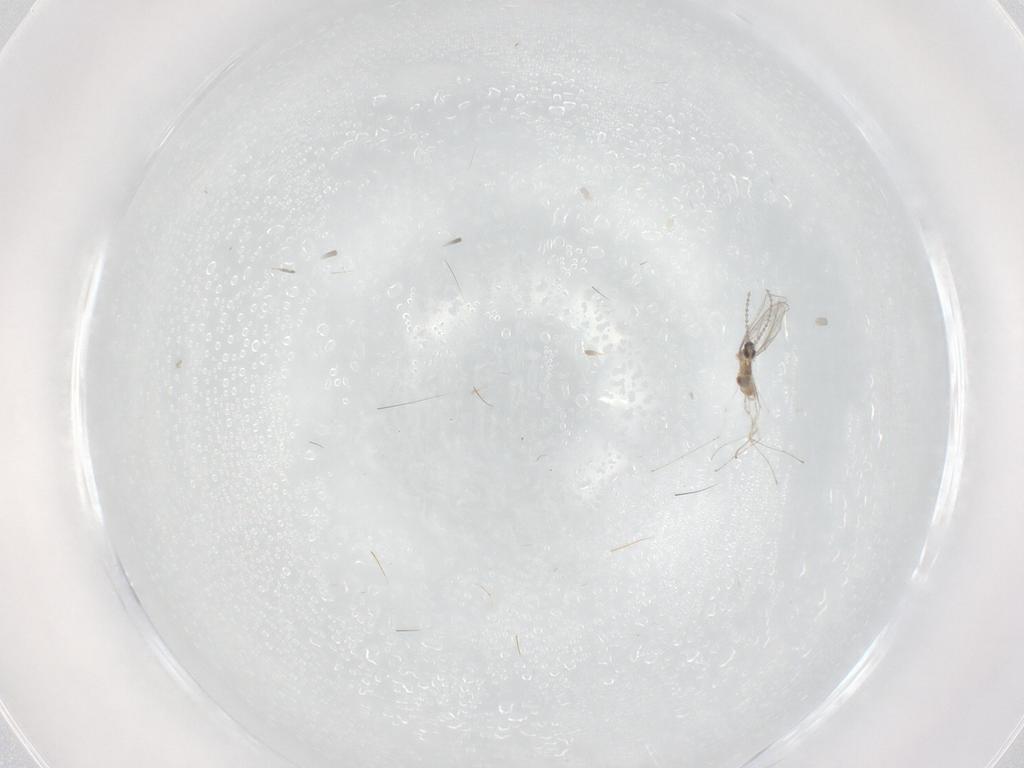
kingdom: Animalia
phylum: Arthropoda
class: Insecta
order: Diptera
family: Cecidomyiidae
